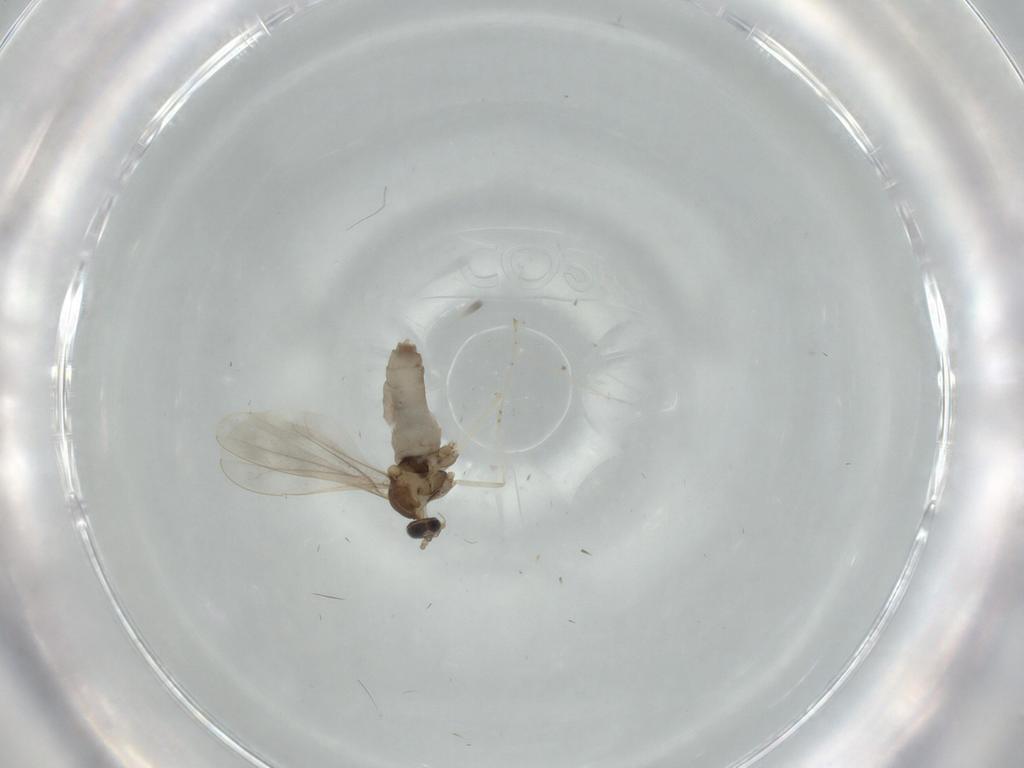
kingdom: Animalia
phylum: Arthropoda
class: Insecta
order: Diptera
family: Cecidomyiidae
